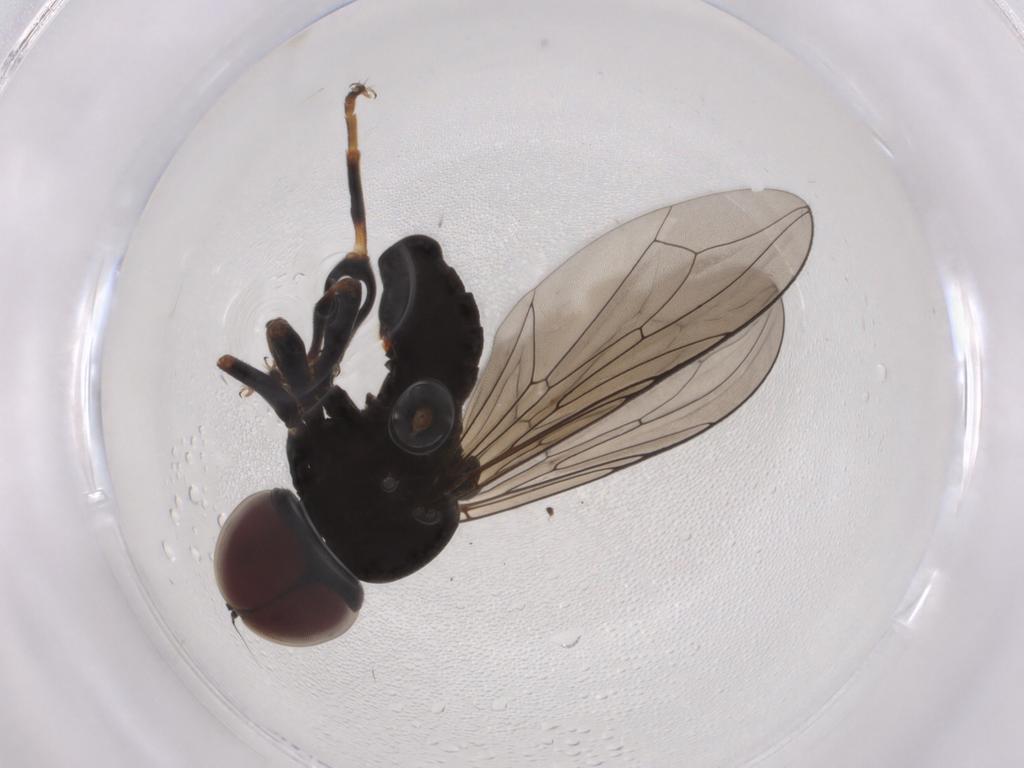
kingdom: Animalia
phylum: Arthropoda
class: Insecta
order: Diptera
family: Pipunculidae
